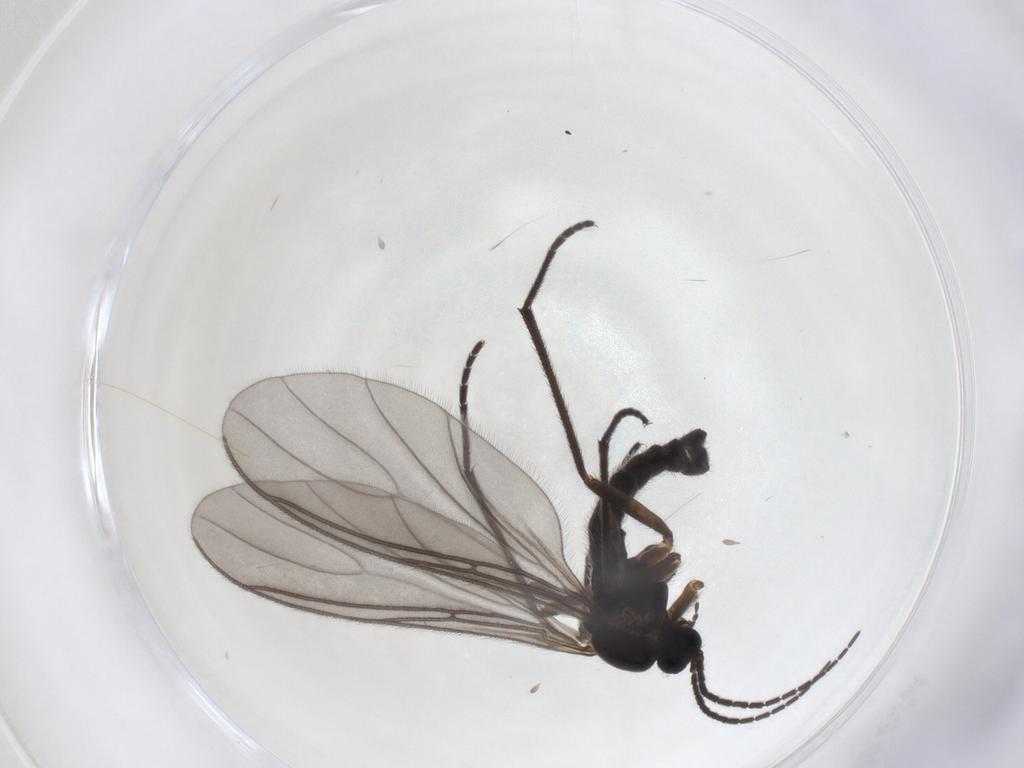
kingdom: Animalia
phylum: Arthropoda
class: Insecta
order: Diptera
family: Sciaridae
